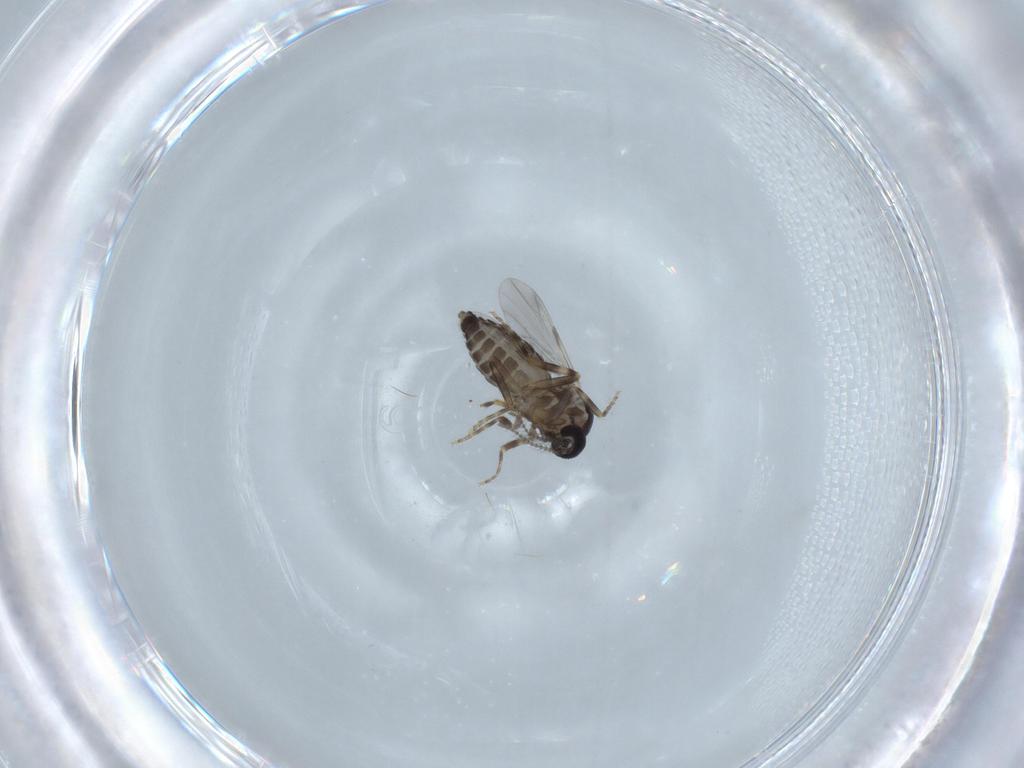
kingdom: Animalia
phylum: Arthropoda
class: Insecta
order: Diptera
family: Ceratopogonidae
